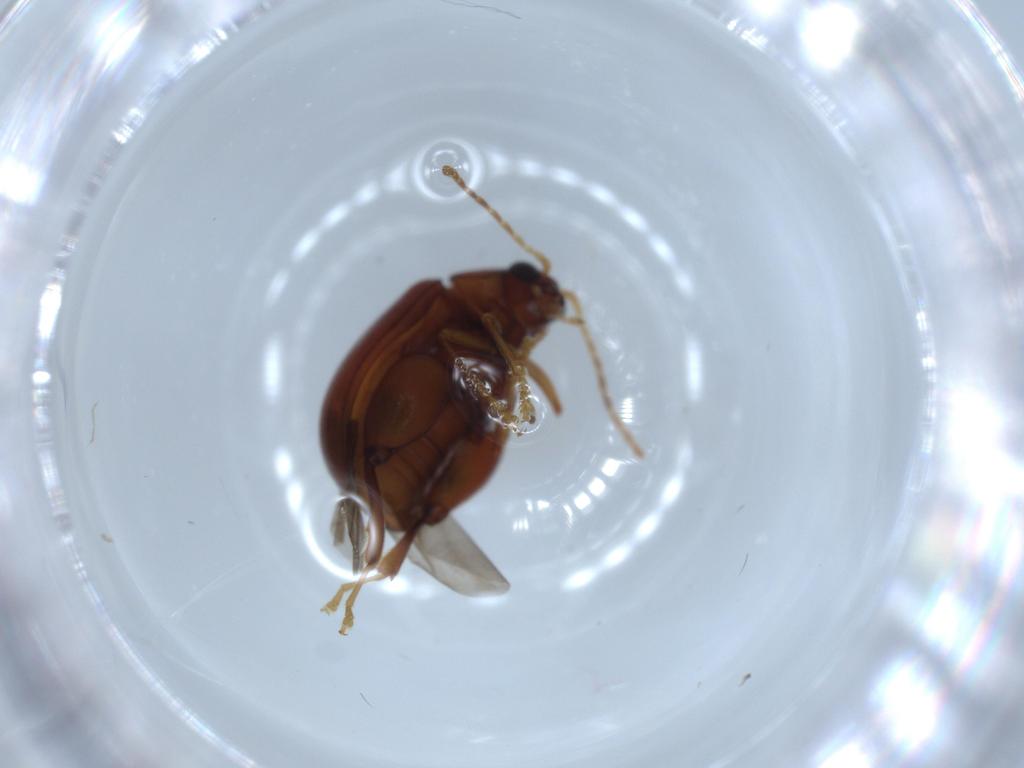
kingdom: Animalia
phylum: Arthropoda
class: Insecta
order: Coleoptera
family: Chrysomelidae
